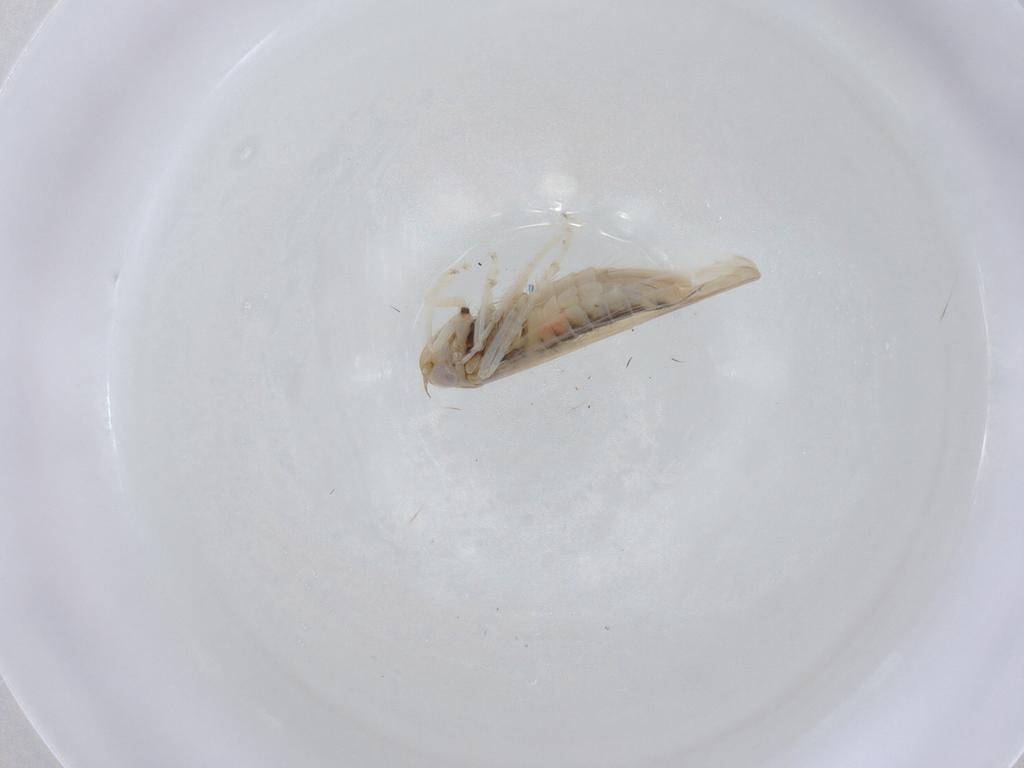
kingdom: Animalia
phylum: Arthropoda
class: Insecta
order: Hemiptera
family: Cicadellidae
